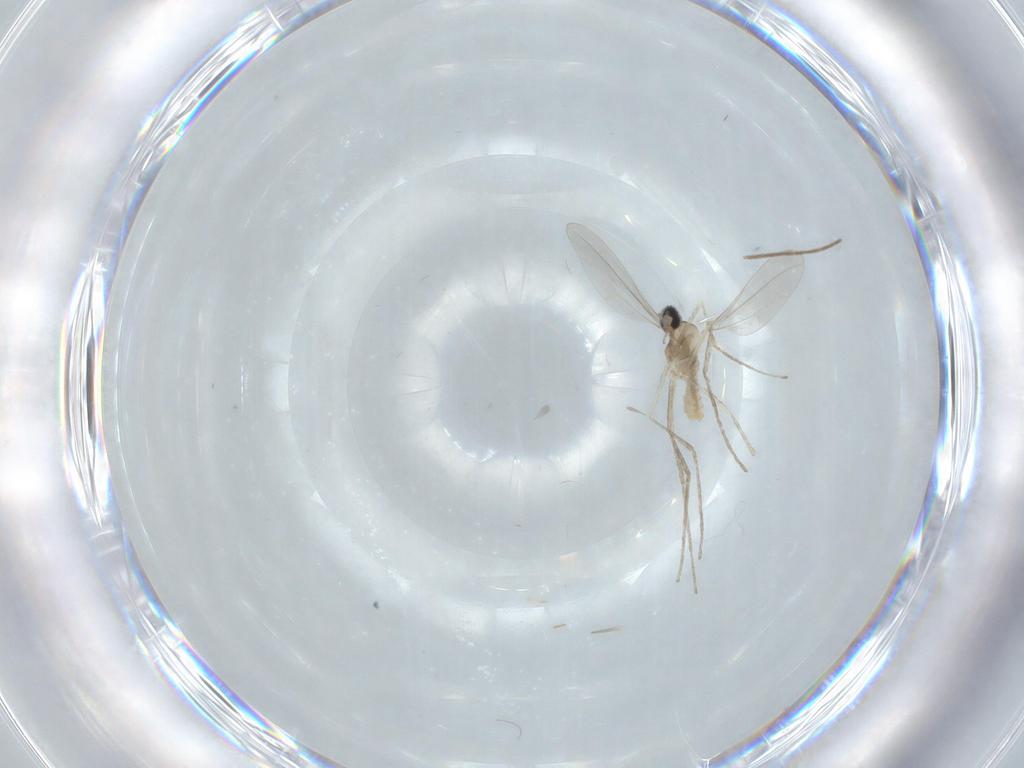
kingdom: Animalia
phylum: Arthropoda
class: Insecta
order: Diptera
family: Cecidomyiidae
